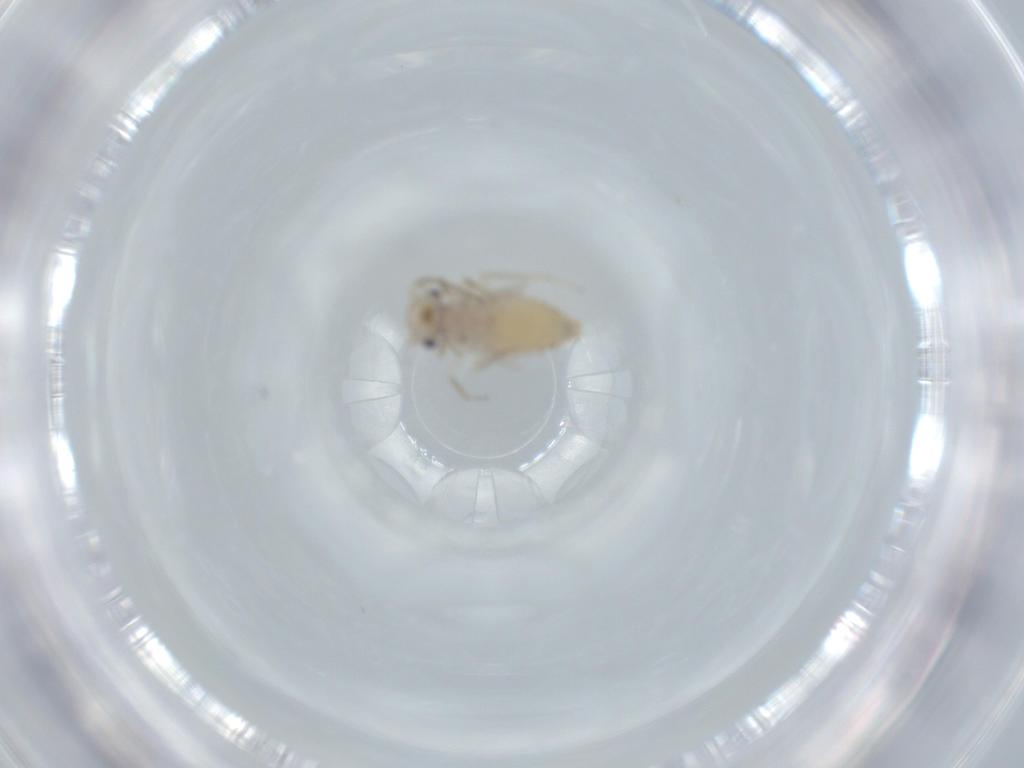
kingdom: Animalia
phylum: Arthropoda
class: Insecta
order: Psocodea
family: Caeciliusidae
